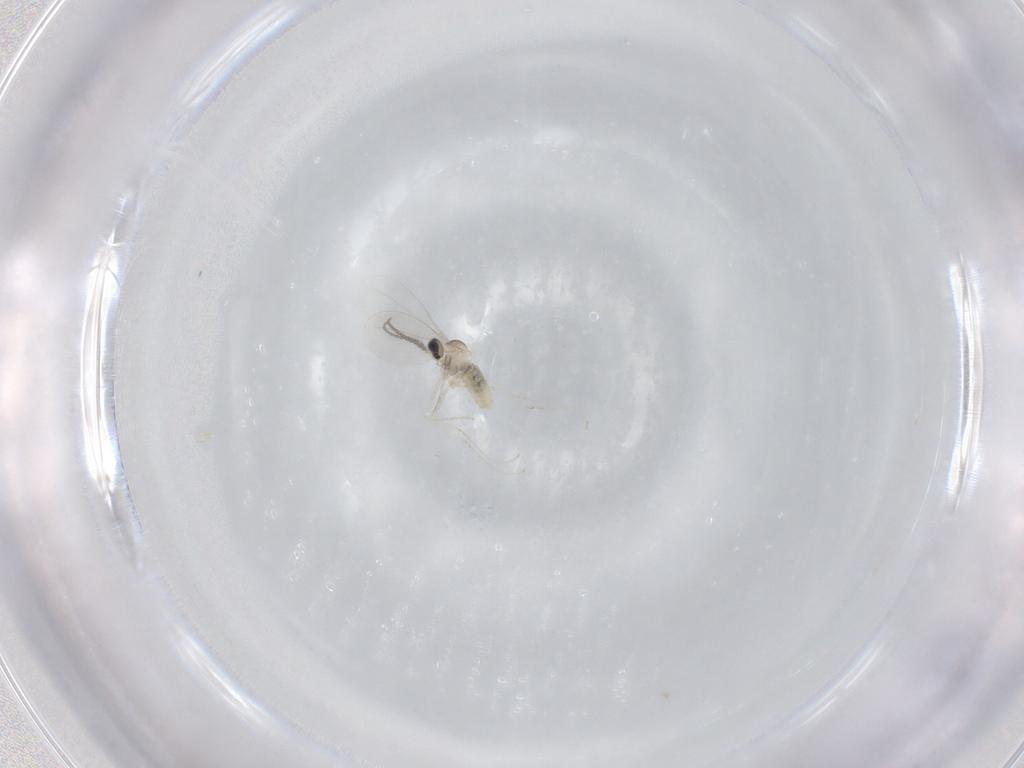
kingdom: Animalia
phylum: Arthropoda
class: Insecta
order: Diptera
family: Cecidomyiidae
